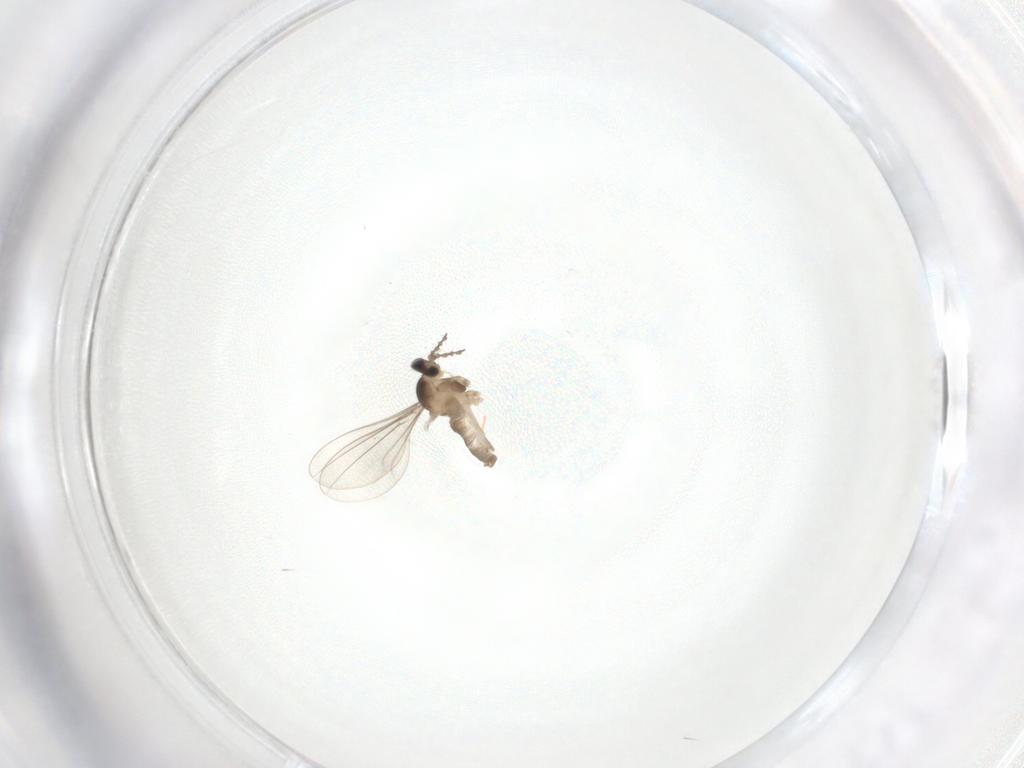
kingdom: Animalia
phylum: Arthropoda
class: Insecta
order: Diptera
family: Cecidomyiidae
